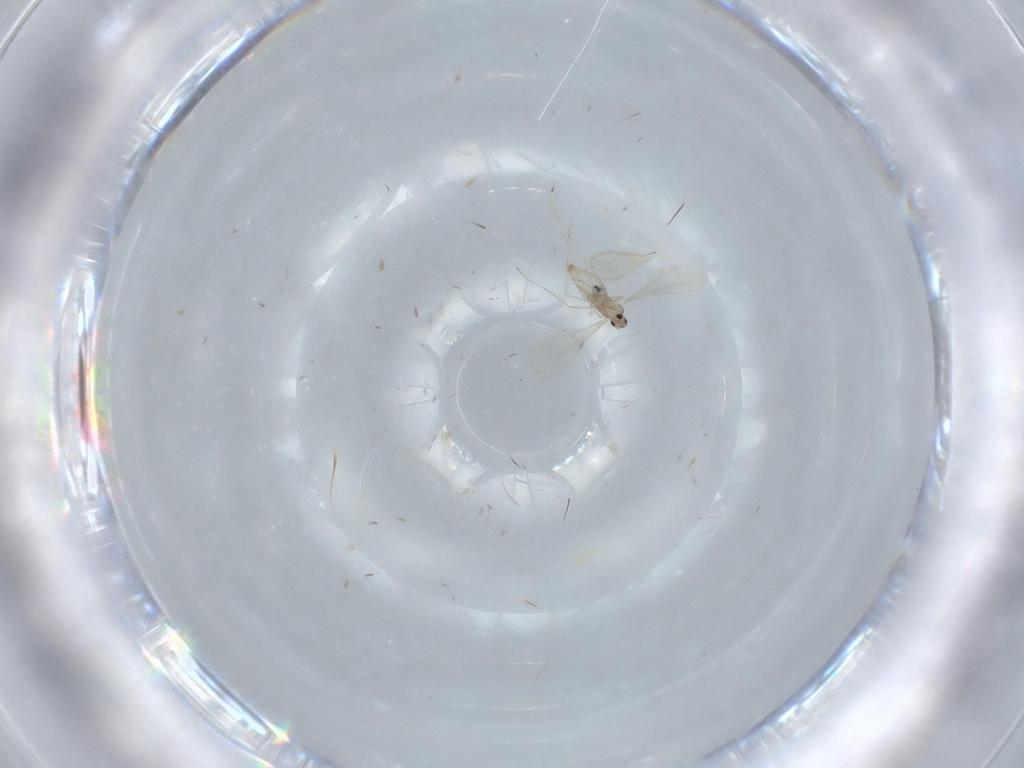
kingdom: Animalia
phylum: Arthropoda
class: Insecta
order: Diptera
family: Cecidomyiidae
